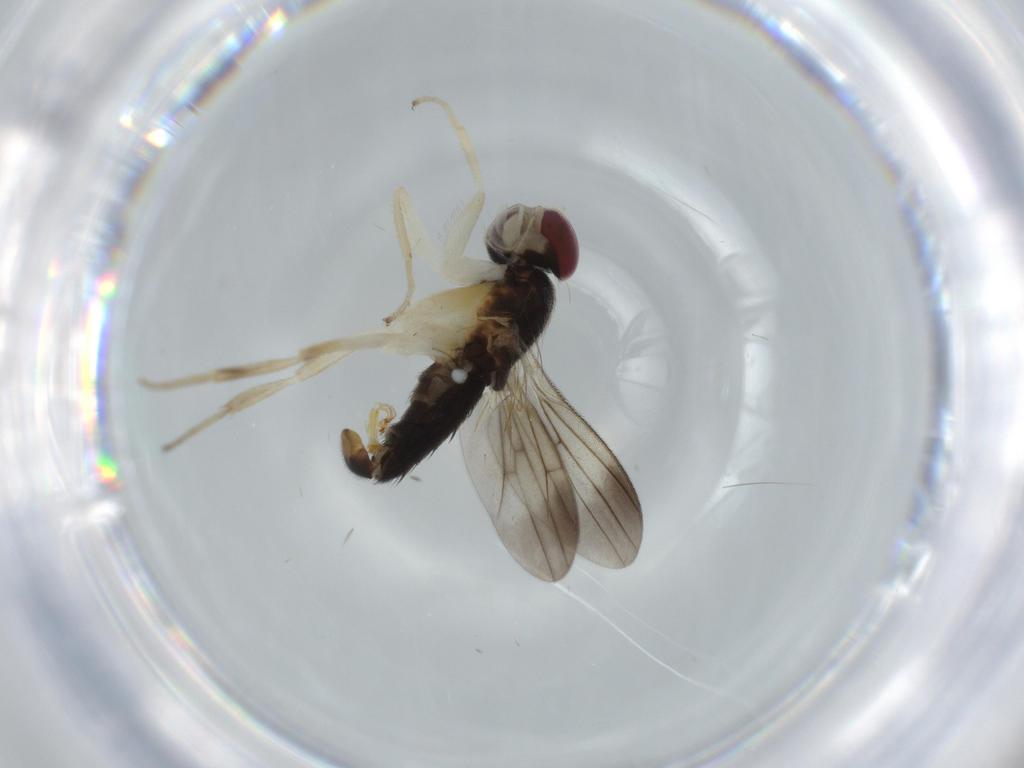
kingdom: Animalia
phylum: Arthropoda
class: Insecta
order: Diptera
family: Clusiidae
